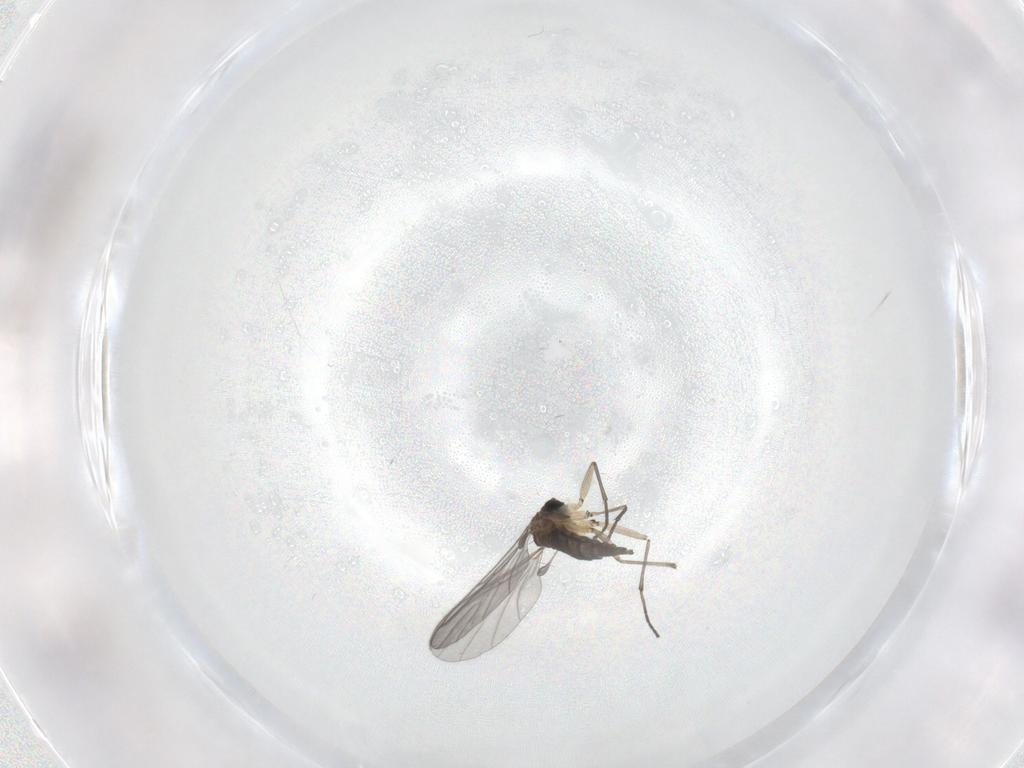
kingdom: Animalia
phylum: Arthropoda
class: Insecta
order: Diptera
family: Sciaridae
